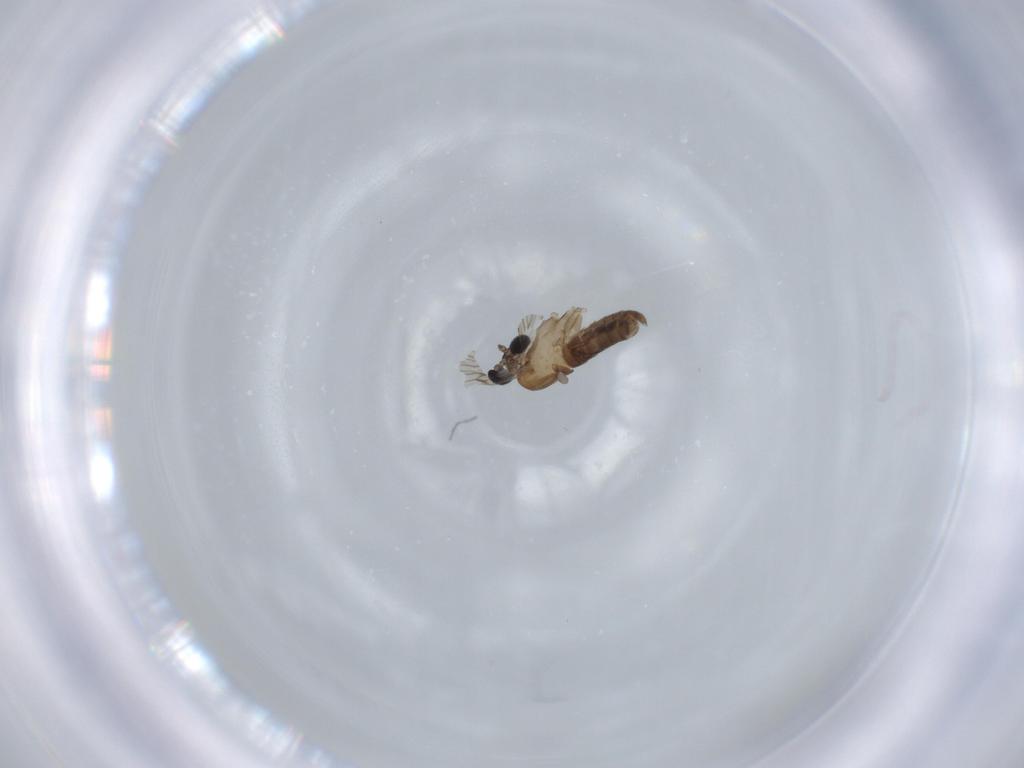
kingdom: Animalia
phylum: Arthropoda
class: Insecta
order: Diptera
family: Psychodidae
